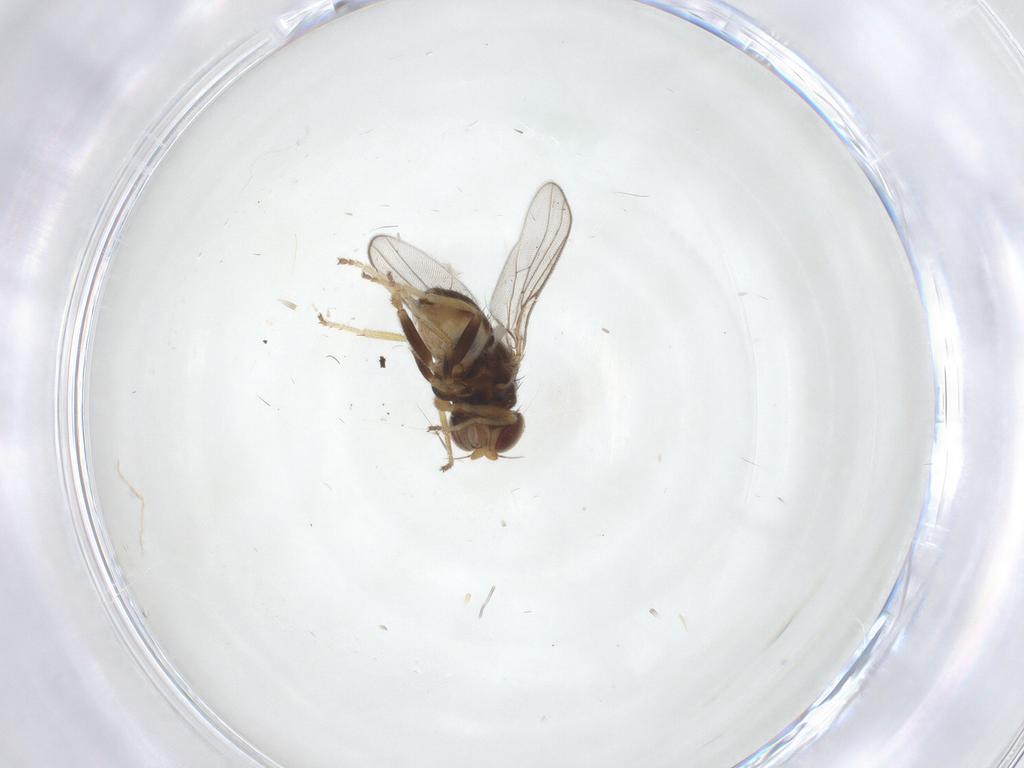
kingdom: Animalia
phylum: Arthropoda
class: Insecta
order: Diptera
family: Chloropidae
